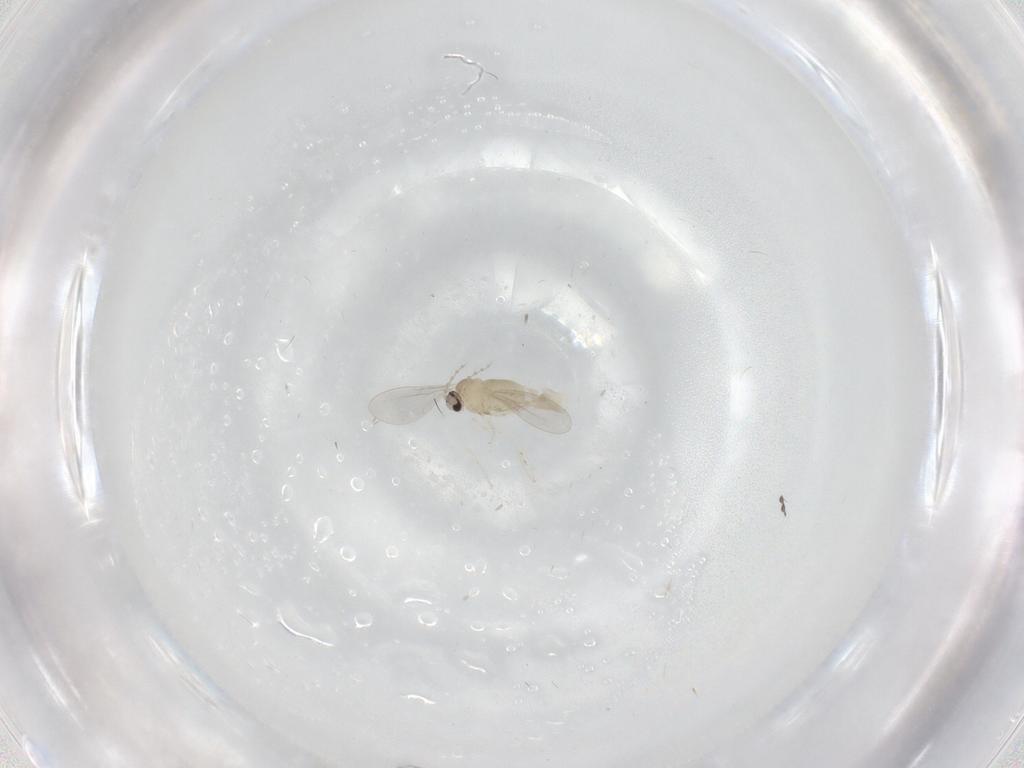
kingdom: Animalia
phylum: Arthropoda
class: Insecta
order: Diptera
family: Cecidomyiidae
